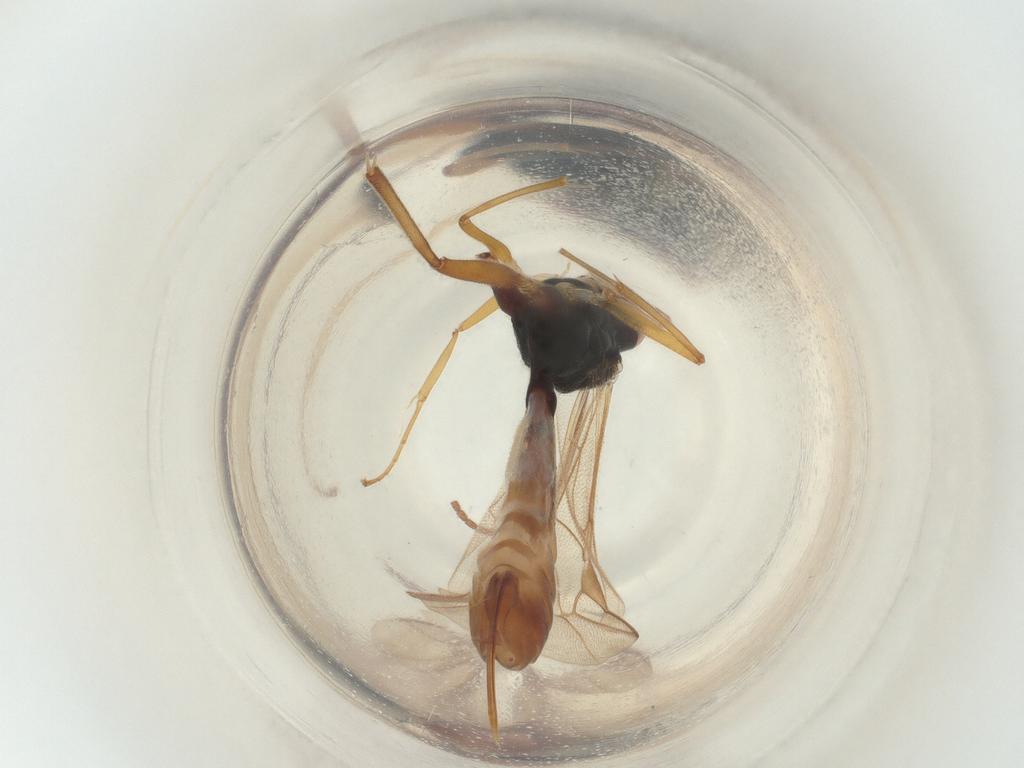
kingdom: Animalia
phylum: Arthropoda
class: Insecta
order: Hymenoptera
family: Ichneumonidae
